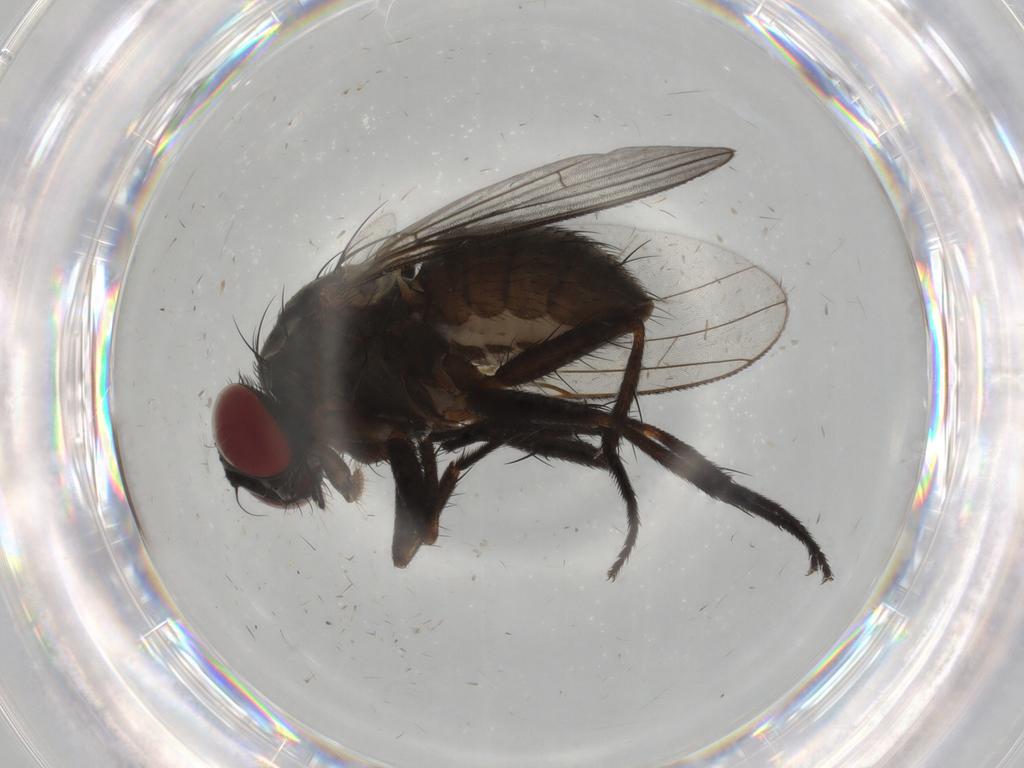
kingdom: Animalia
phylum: Arthropoda
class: Insecta
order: Diptera
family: Muscidae
